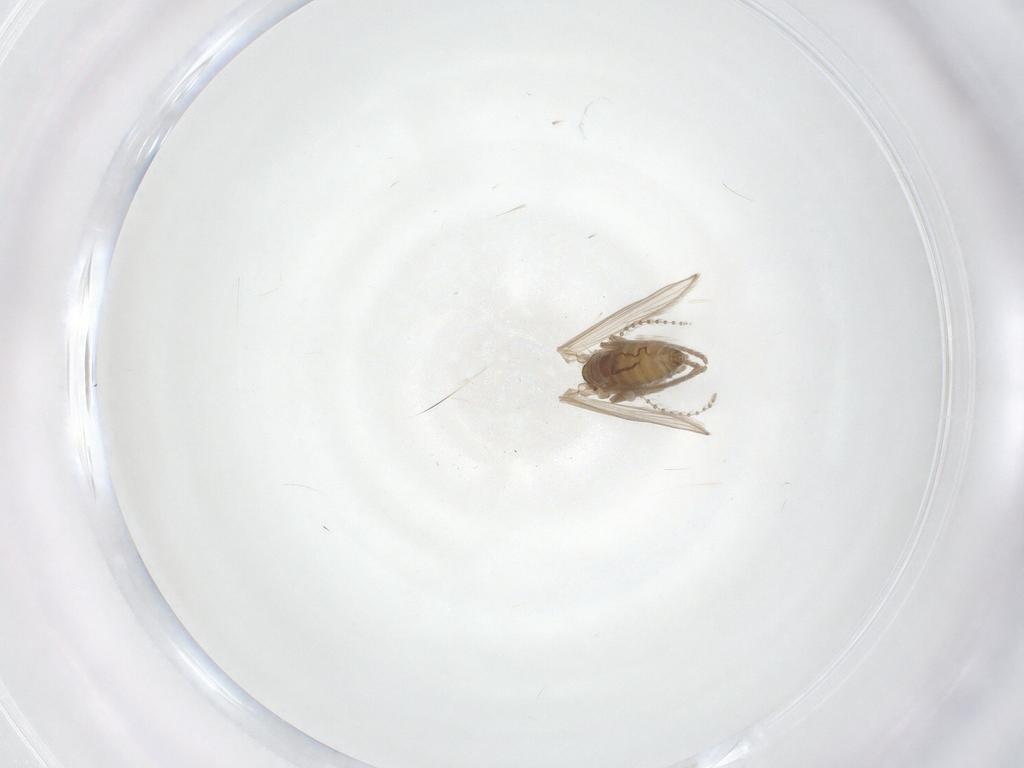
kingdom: Animalia
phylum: Arthropoda
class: Insecta
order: Diptera
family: Psychodidae
